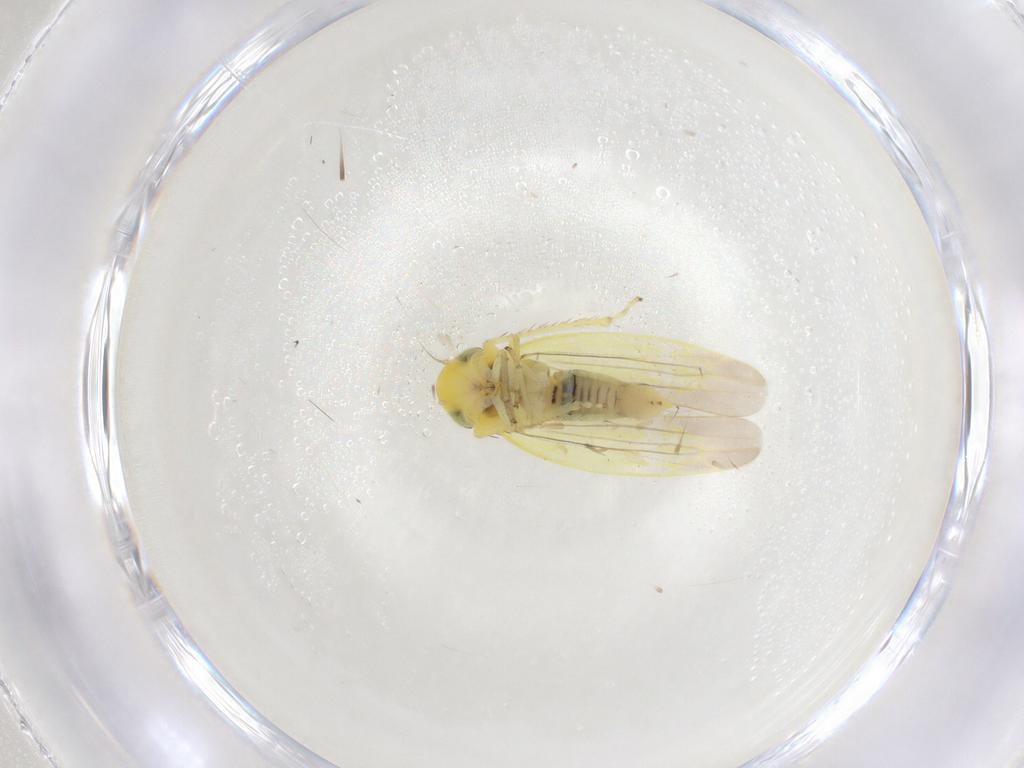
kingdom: Animalia
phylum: Arthropoda
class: Insecta
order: Hemiptera
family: Cicadellidae
